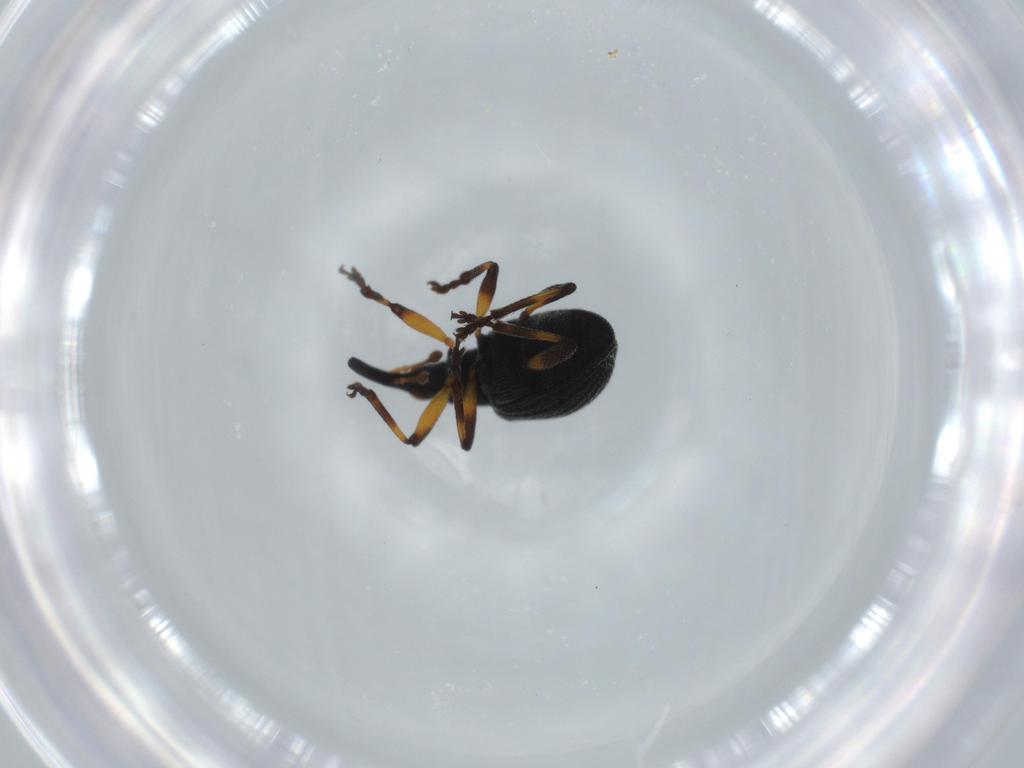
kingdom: Animalia
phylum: Arthropoda
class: Insecta
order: Coleoptera
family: Brentidae
